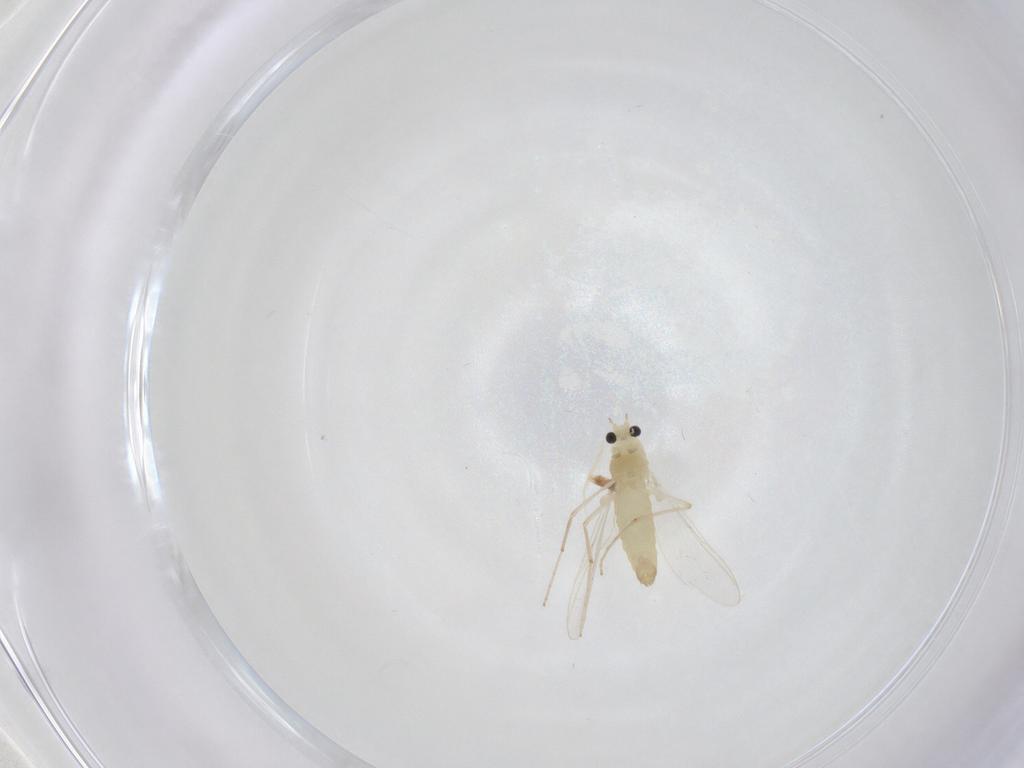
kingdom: Animalia
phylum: Arthropoda
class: Insecta
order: Diptera
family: Chironomidae
